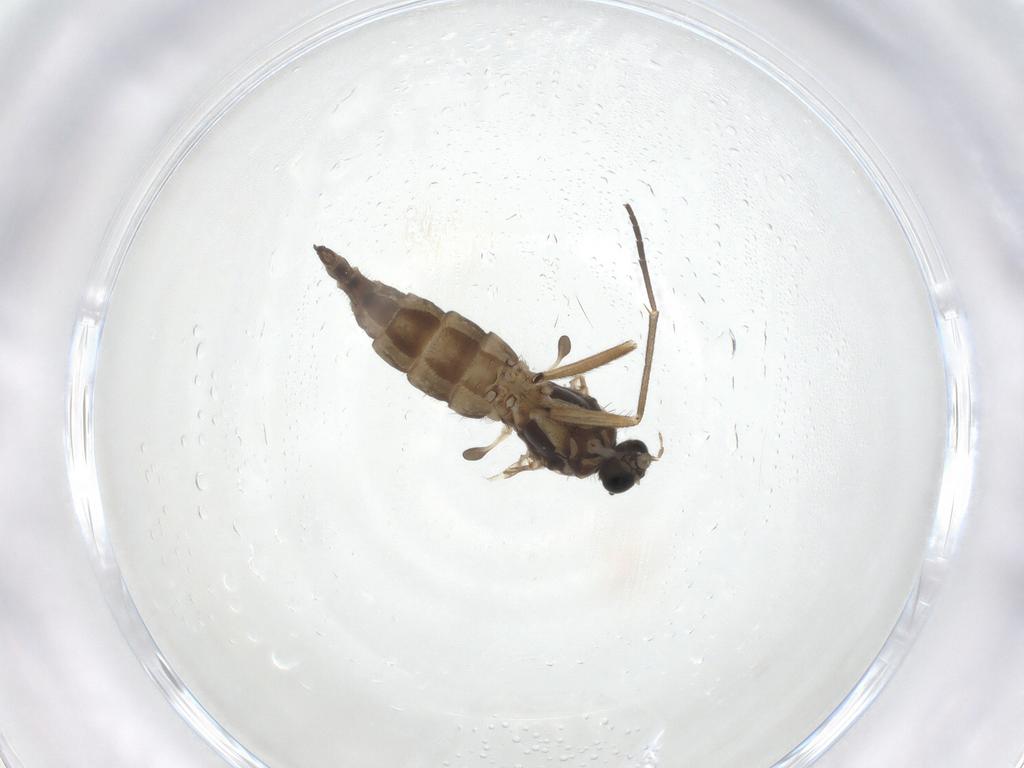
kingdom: Animalia
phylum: Arthropoda
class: Insecta
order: Diptera
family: Sciaridae
